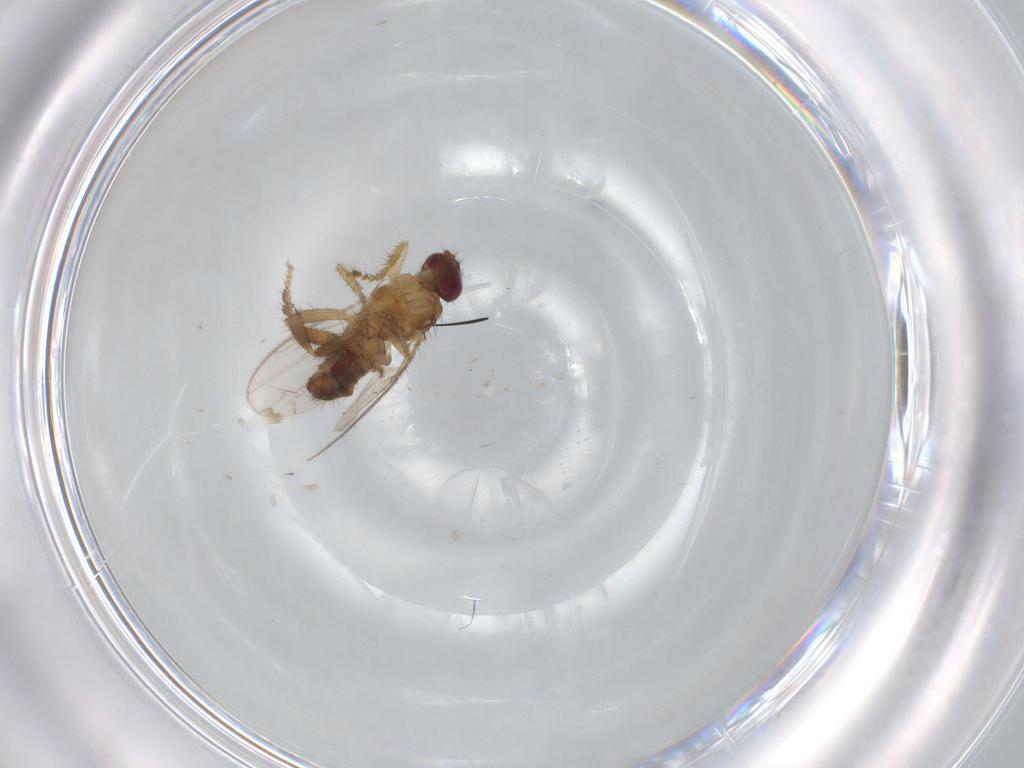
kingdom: Animalia
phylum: Arthropoda
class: Insecta
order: Diptera
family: Sphaeroceridae
